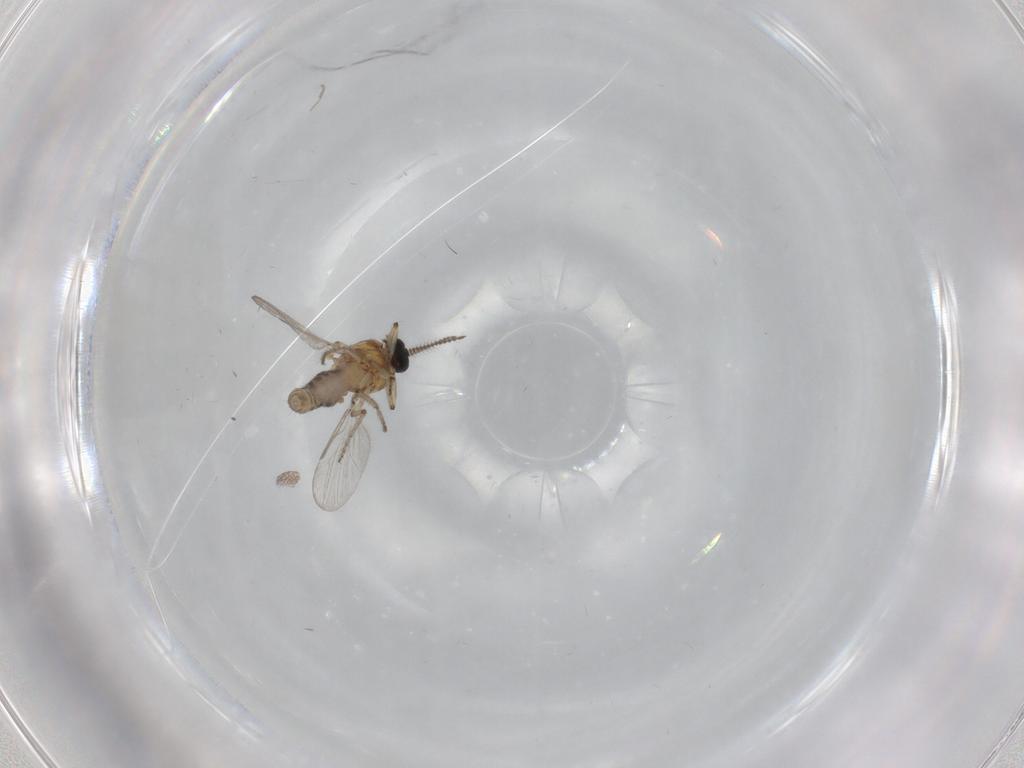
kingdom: Animalia
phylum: Arthropoda
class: Insecta
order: Diptera
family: Ceratopogonidae
